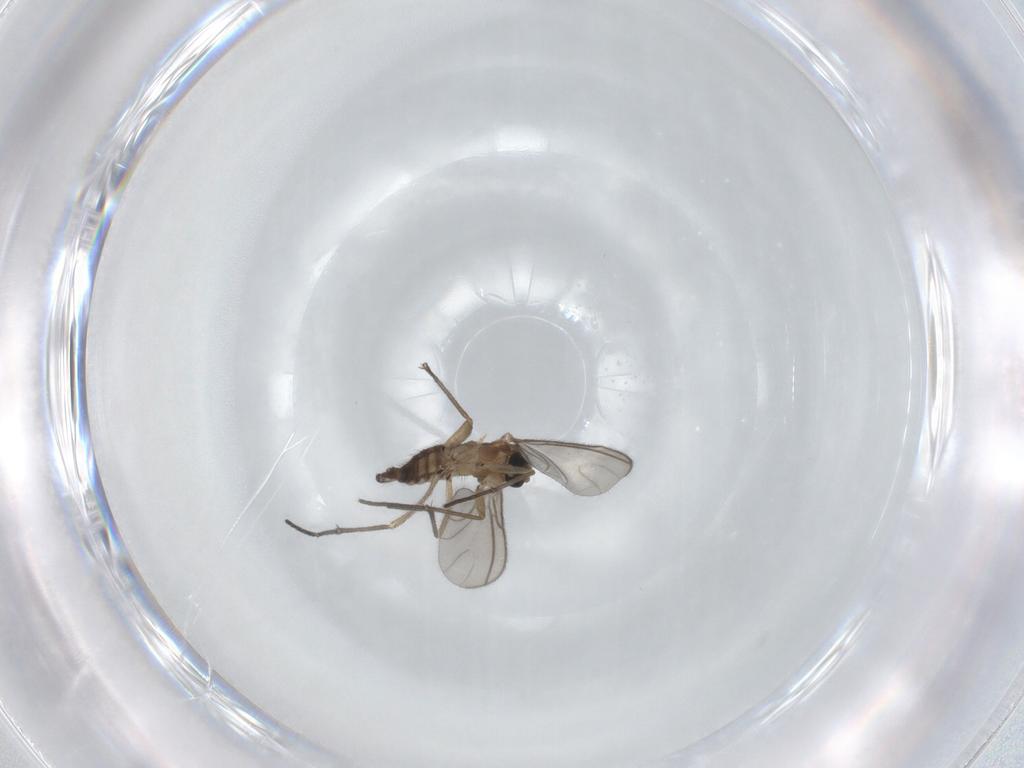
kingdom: Animalia
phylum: Arthropoda
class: Insecta
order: Diptera
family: Sciaridae
